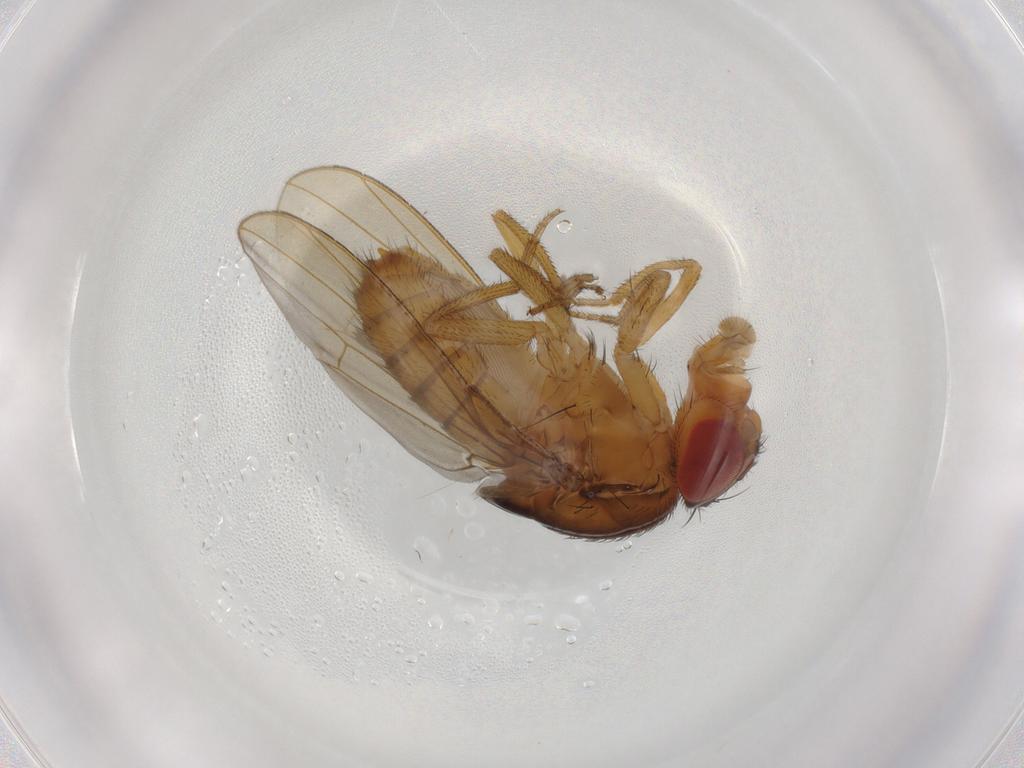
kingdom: Animalia
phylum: Arthropoda
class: Insecta
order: Diptera
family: Drosophilidae
